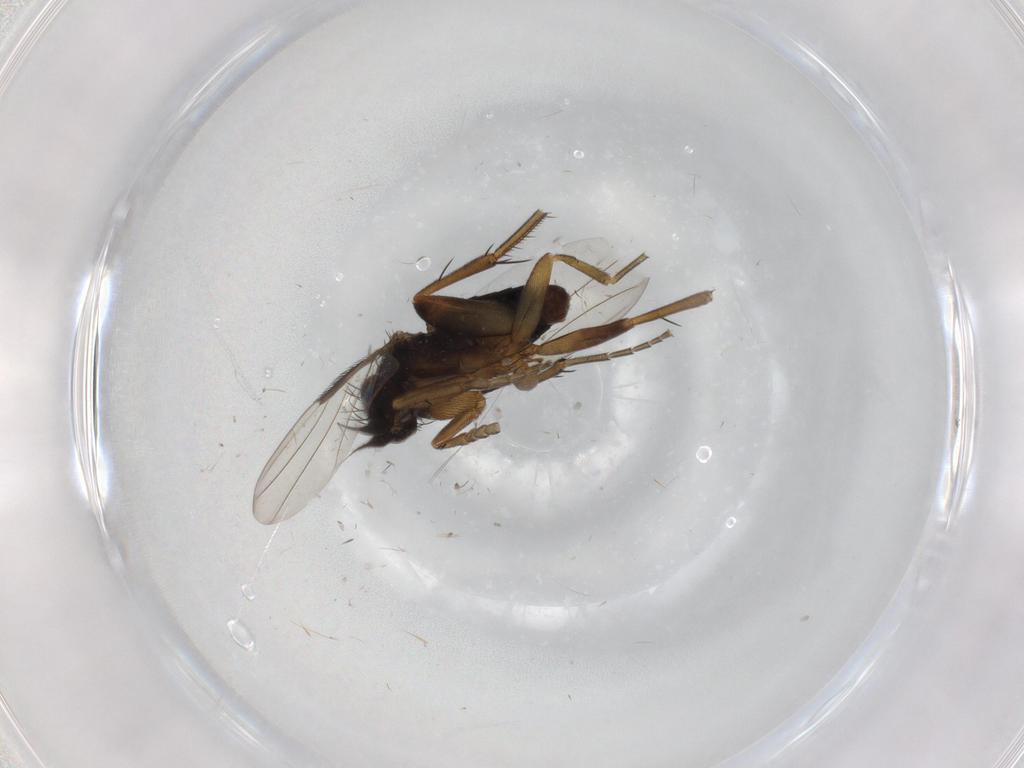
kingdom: Animalia
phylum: Arthropoda
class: Insecta
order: Diptera
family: Phoridae
